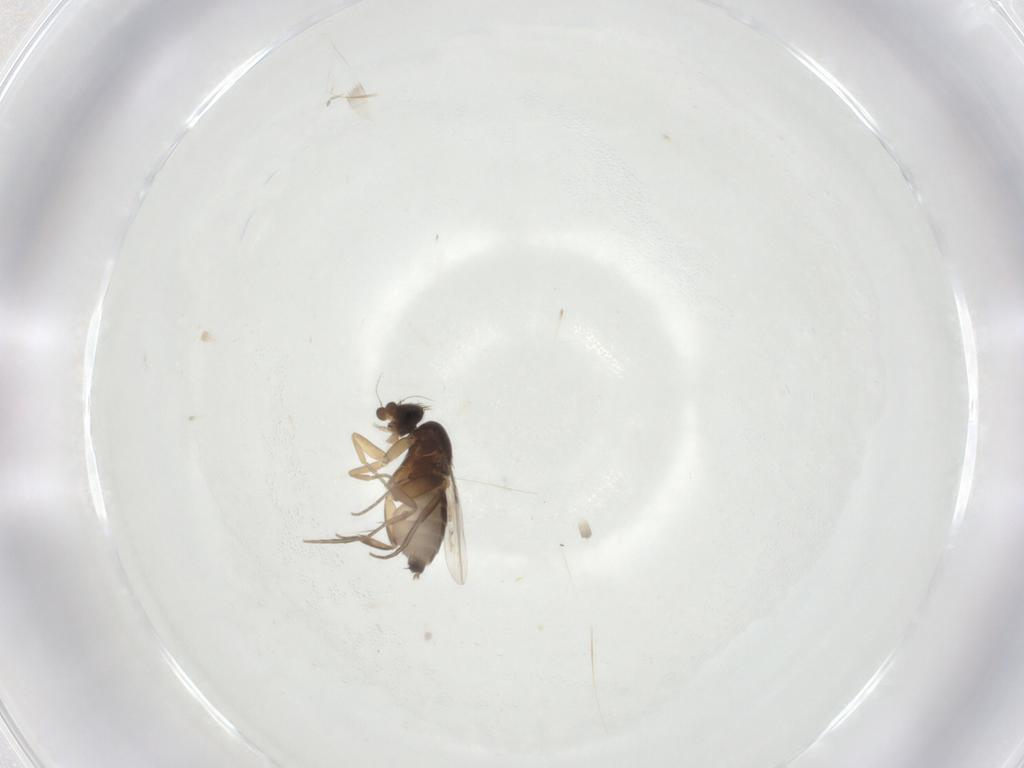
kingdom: Animalia
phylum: Arthropoda
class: Insecta
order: Diptera
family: Phoridae
